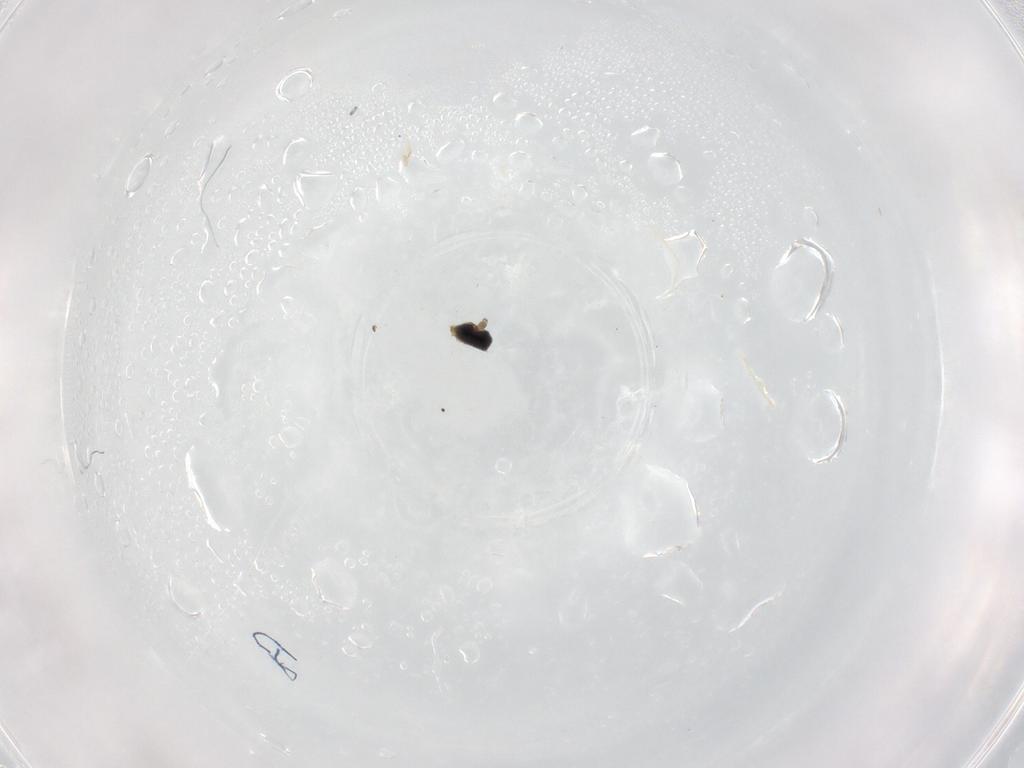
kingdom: Animalia
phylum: Arthropoda
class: Insecta
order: Diptera
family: Cecidomyiidae
